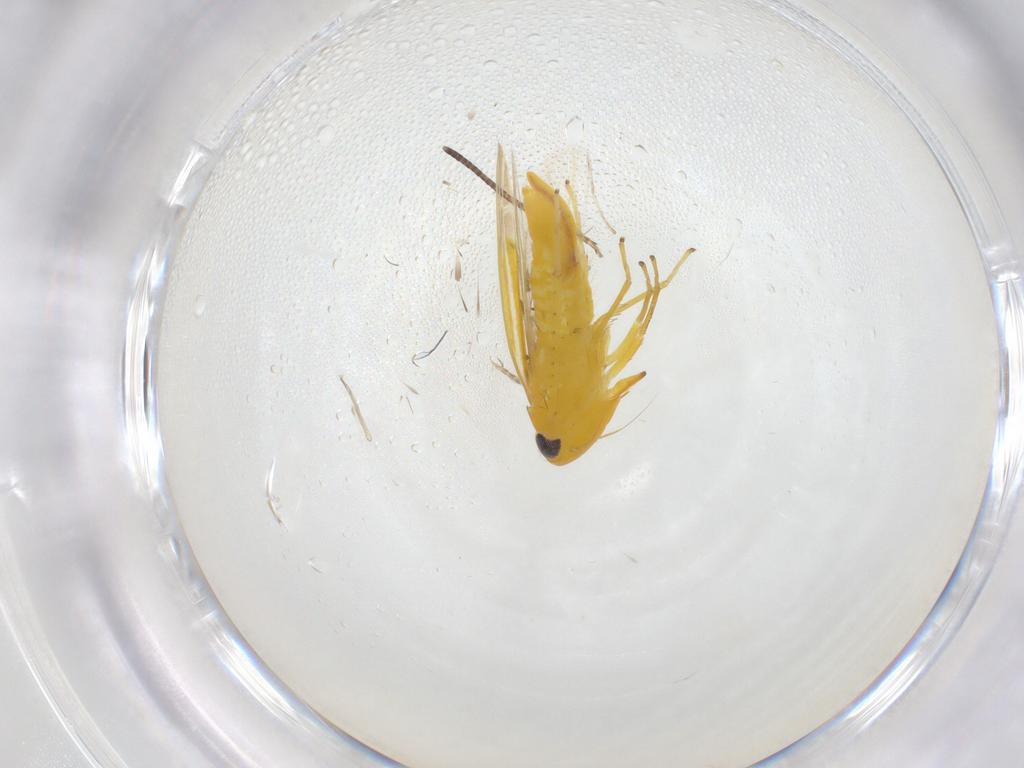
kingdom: Animalia
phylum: Arthropoda
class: Insecta
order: Hemiptera
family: Cicadellidae
